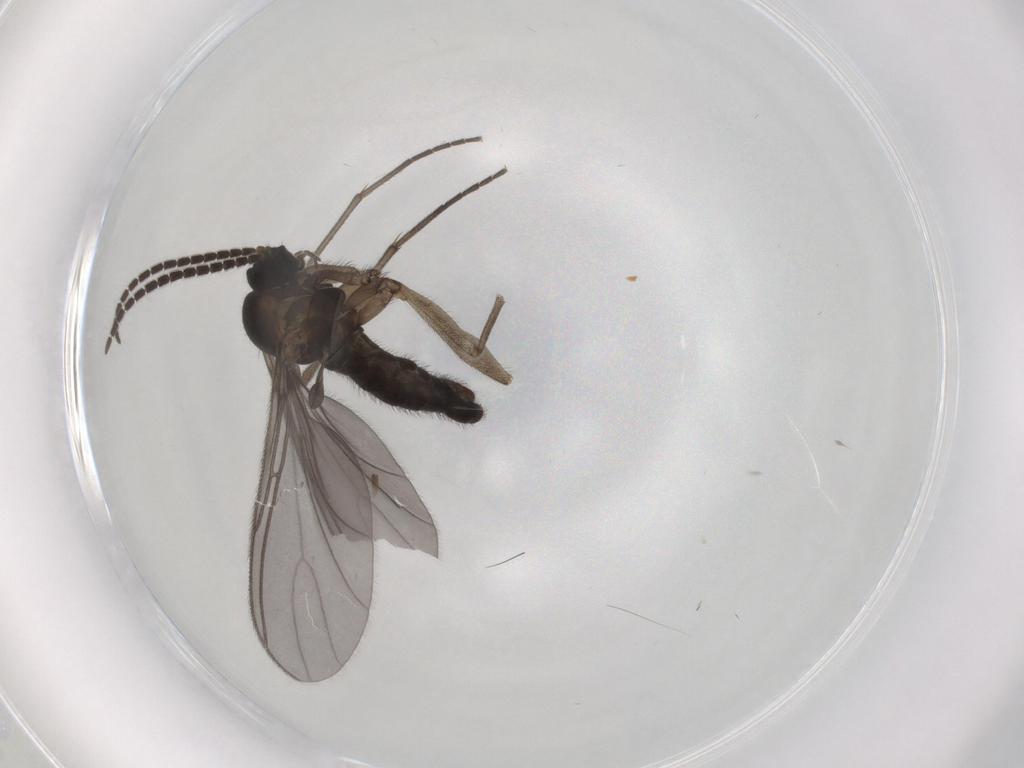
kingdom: Animalia
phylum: Arthropoda
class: Insecta
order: Diptera
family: Sciaridae
